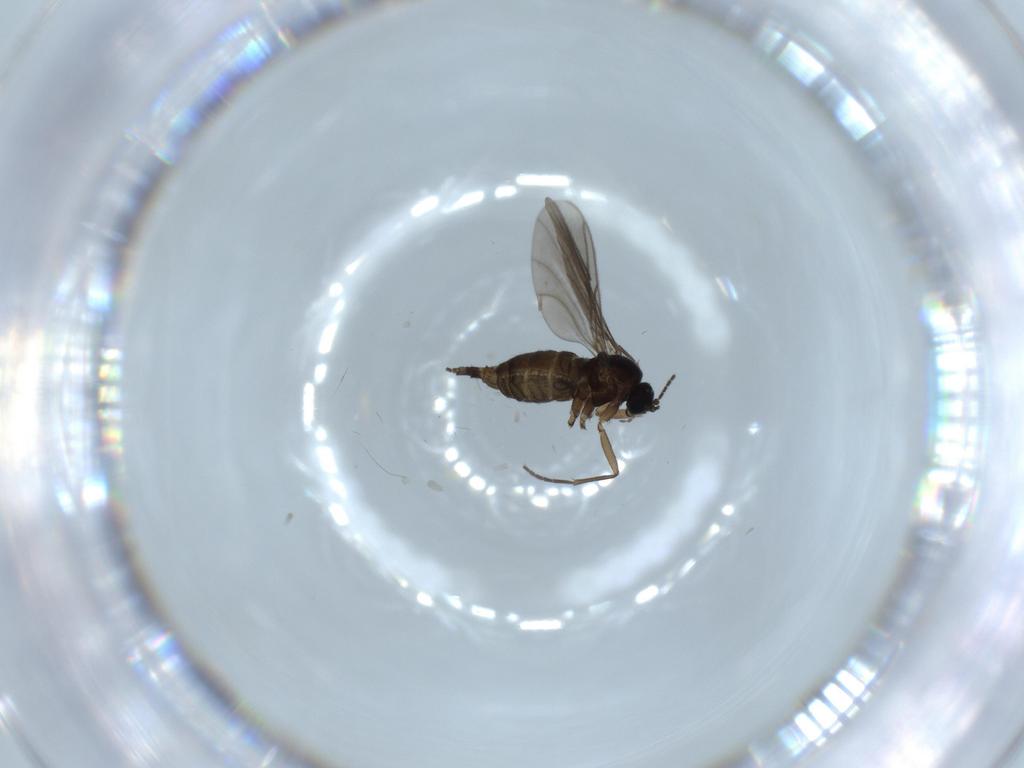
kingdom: Animalia
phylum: Arthropoda
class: Insecta
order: Diptera
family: Sciaridae
